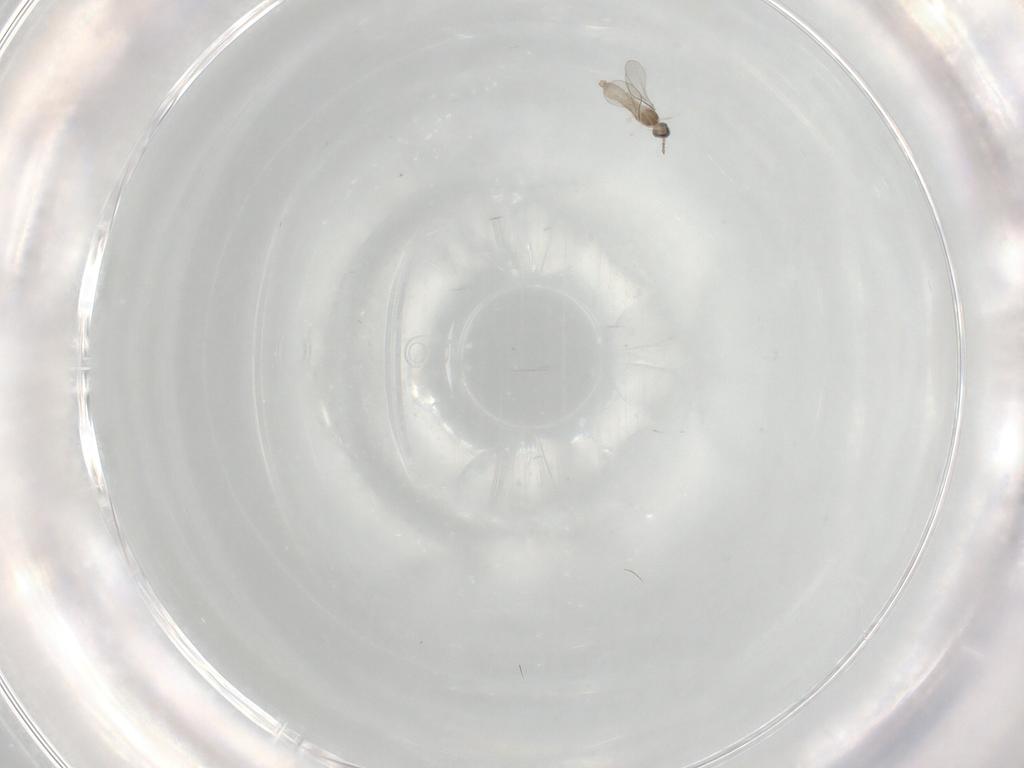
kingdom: Animalia
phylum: Arthropoda
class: Insecta
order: Diptera
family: Cecidomyiidae
